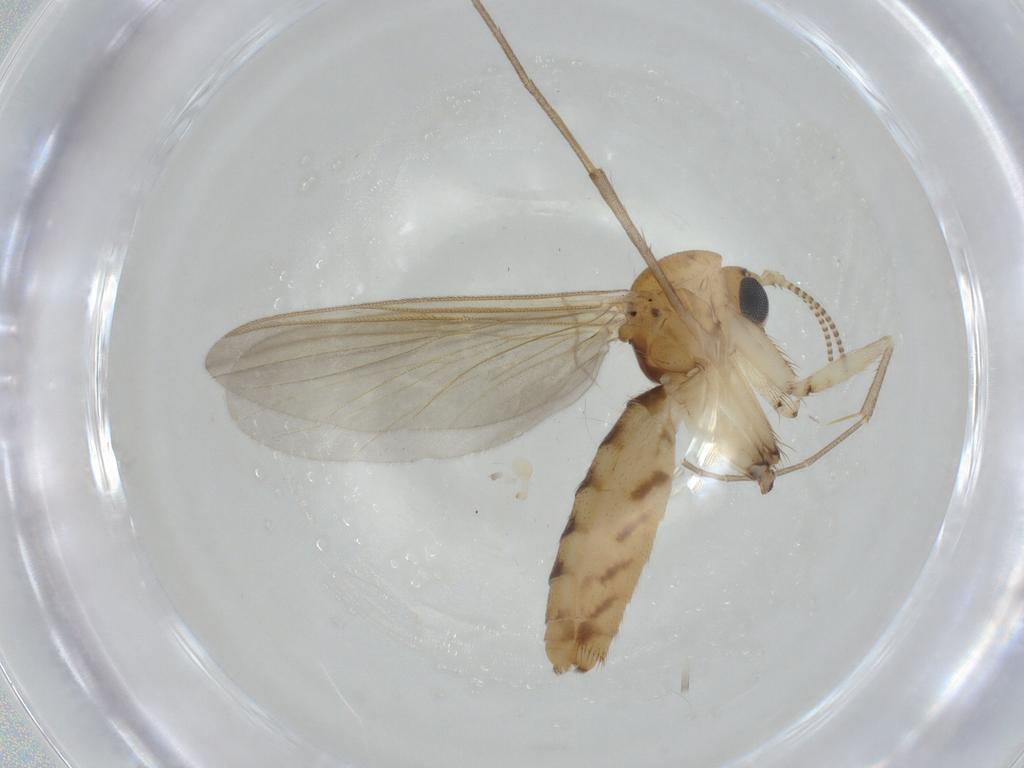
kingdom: Animalia
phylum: Arthropoda
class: Insecta
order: Diptera
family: Mycetophilidae
